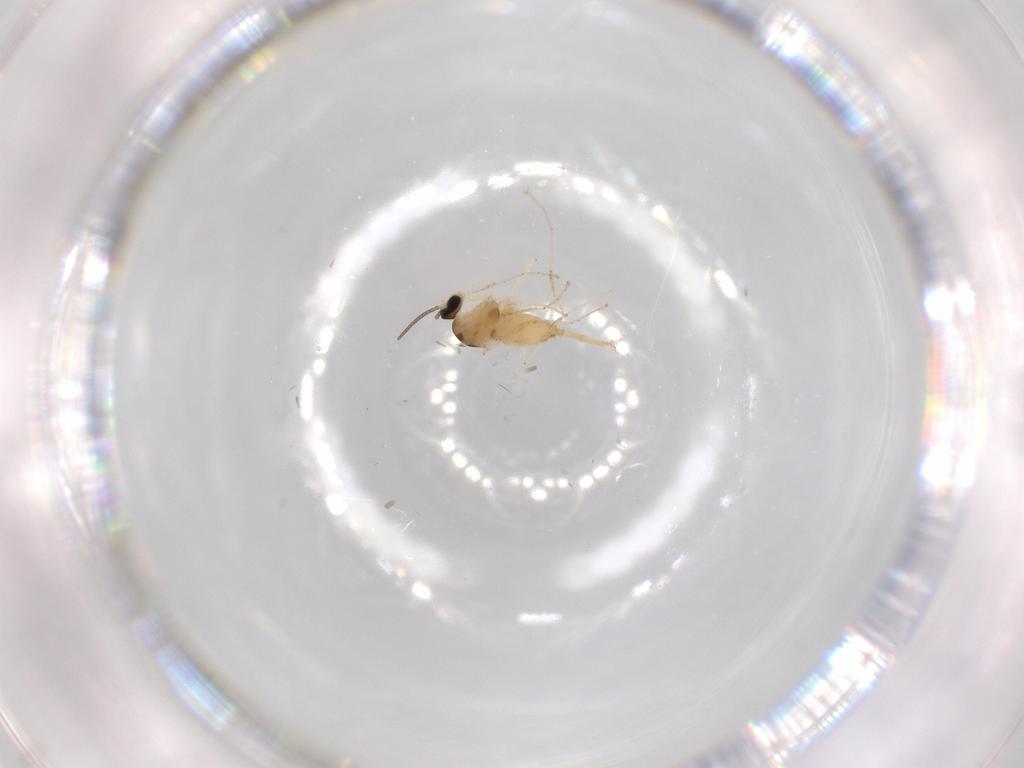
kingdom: Animalia
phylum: Arthropoda
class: Insecta
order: Diptera
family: Cecidomyiidae
